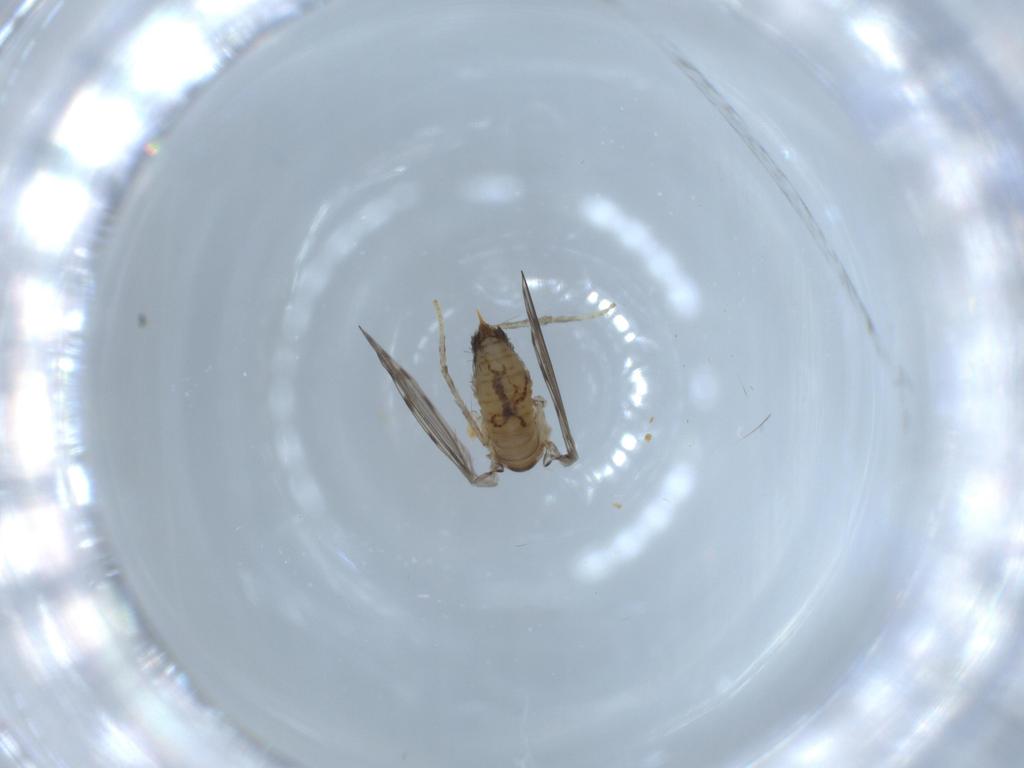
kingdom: Animalia
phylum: Arthropoda
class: Insecta
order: Diptera
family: Psychodidae
